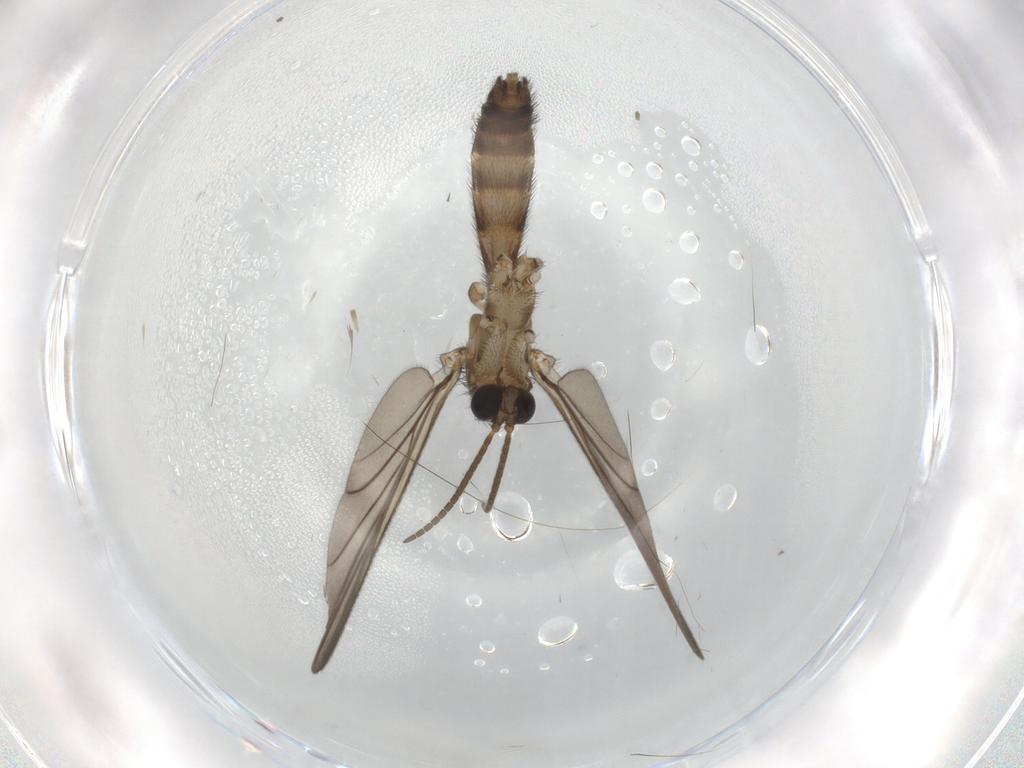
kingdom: Animalia
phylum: Arthropoda
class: Insecta
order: Diptera
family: Keroplatidae
